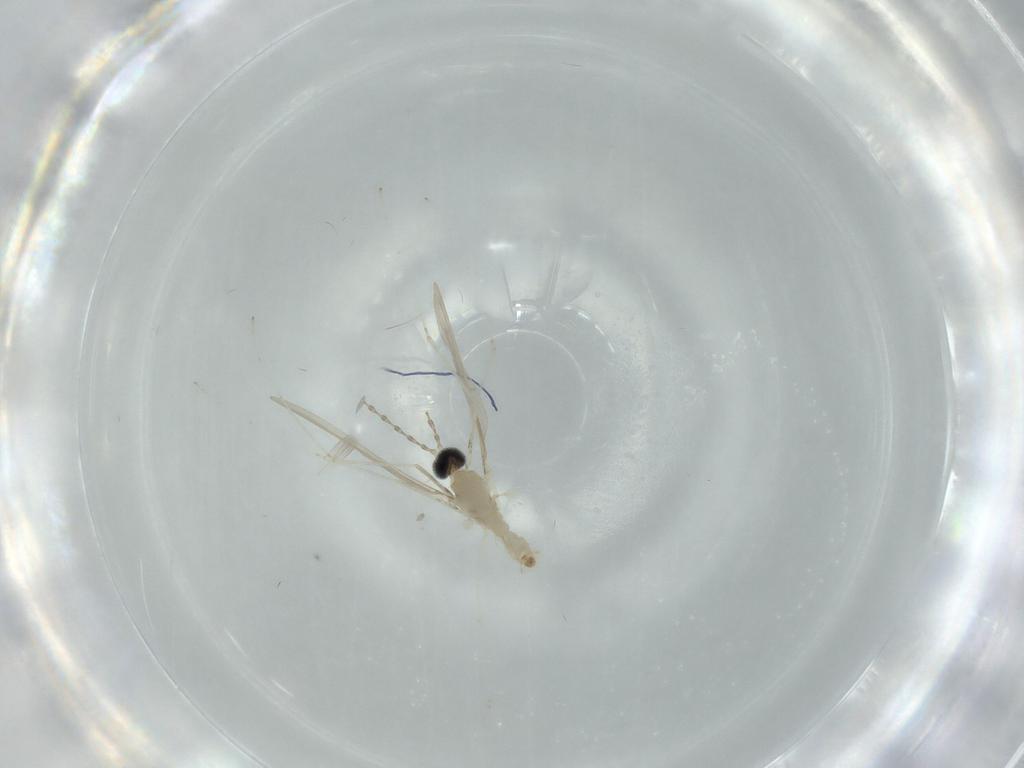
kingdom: Animalia
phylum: Arthropoda
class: Insecta
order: Diptera
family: Cecidomyiidae
